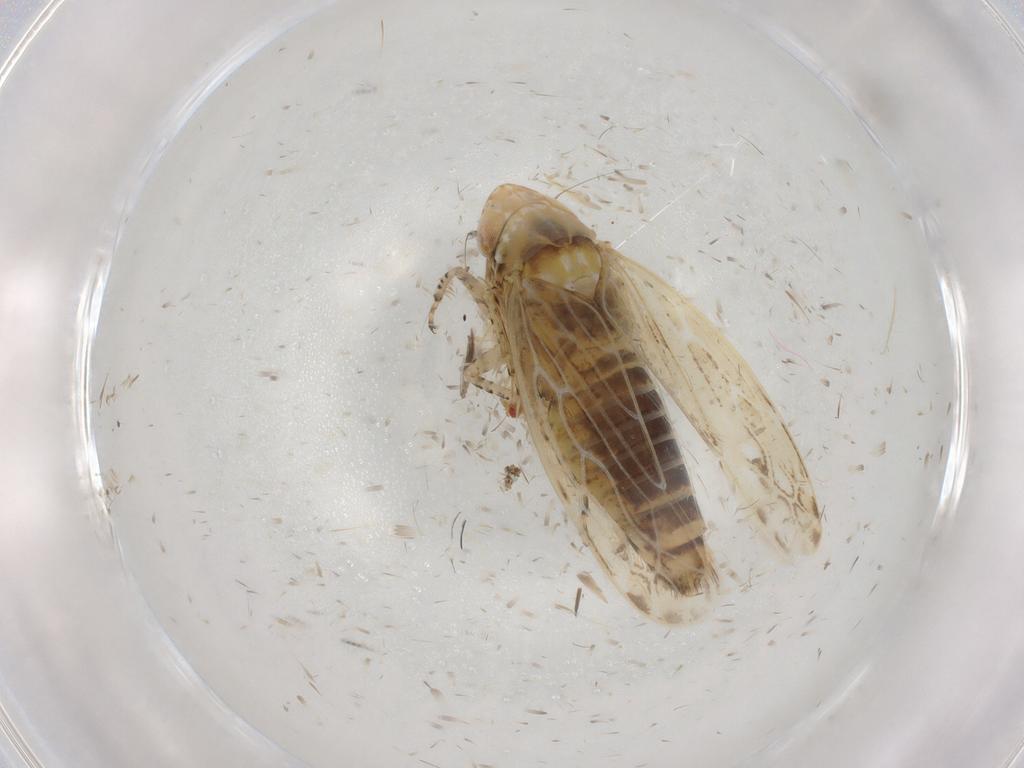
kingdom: Animalia
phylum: Arthropoda
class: Insecta
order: Hemiptera
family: Cicadellidae
